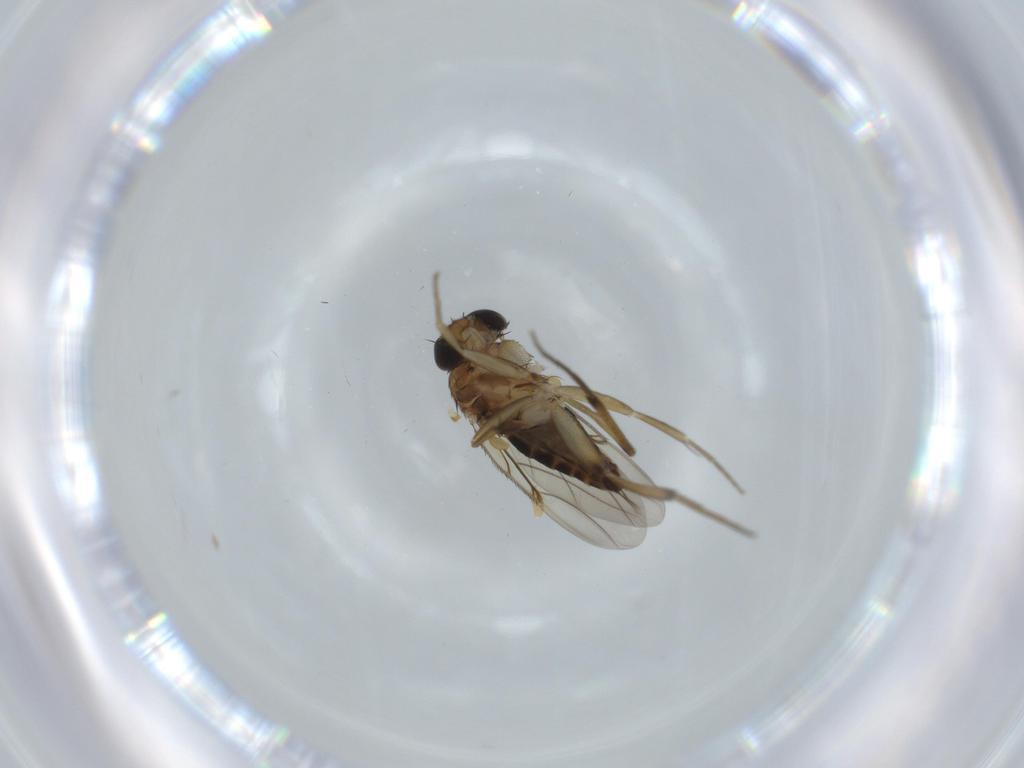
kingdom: Animalia
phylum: Arthropoda
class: Insecta
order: Diptera
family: Phoridae
